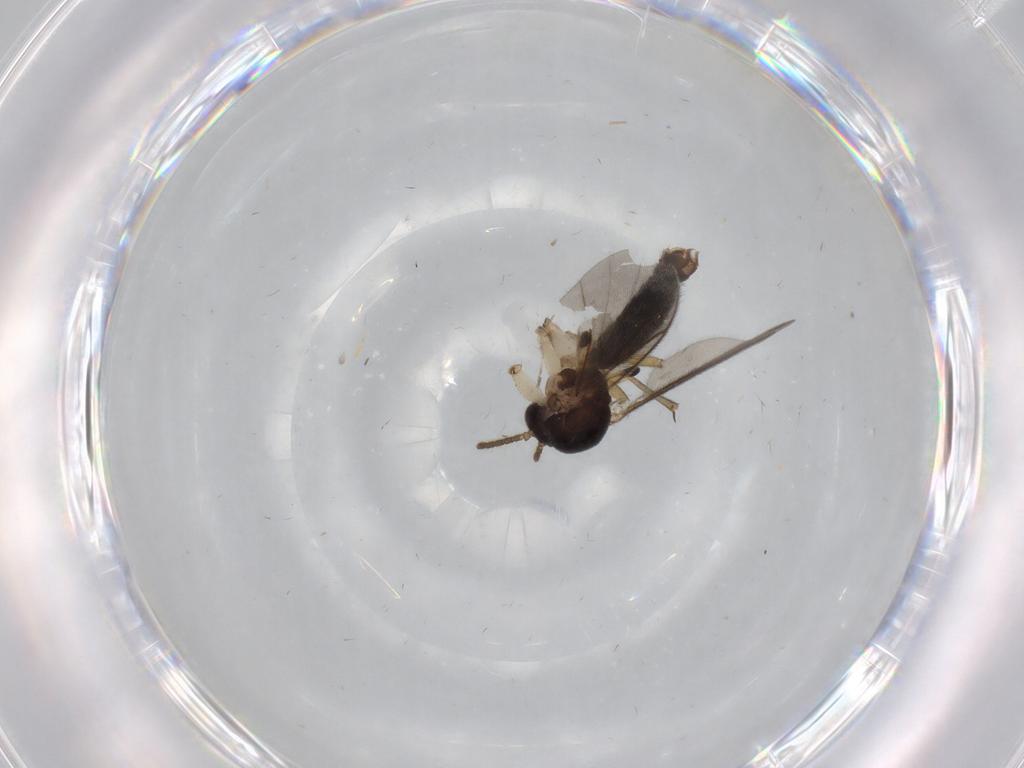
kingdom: Animalia
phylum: Arthropoda
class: Insecta
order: Diptera
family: Mycetophilidae
